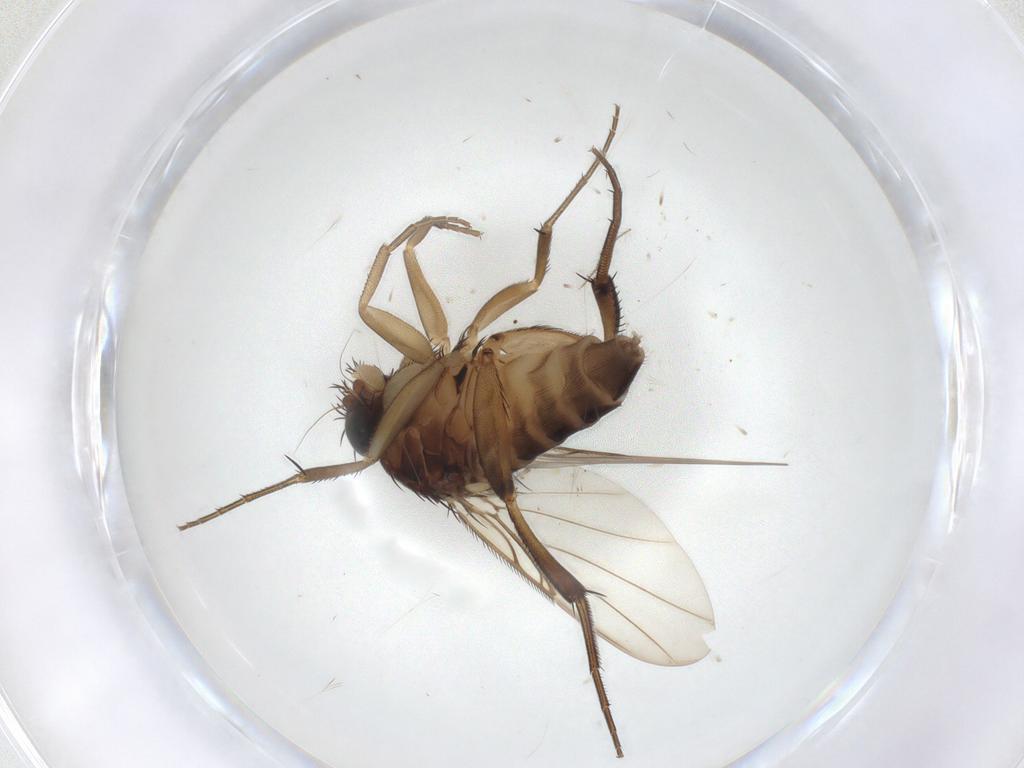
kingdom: Animalia
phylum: Arthropoda
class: Insecta
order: Diptera
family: Phoridae
